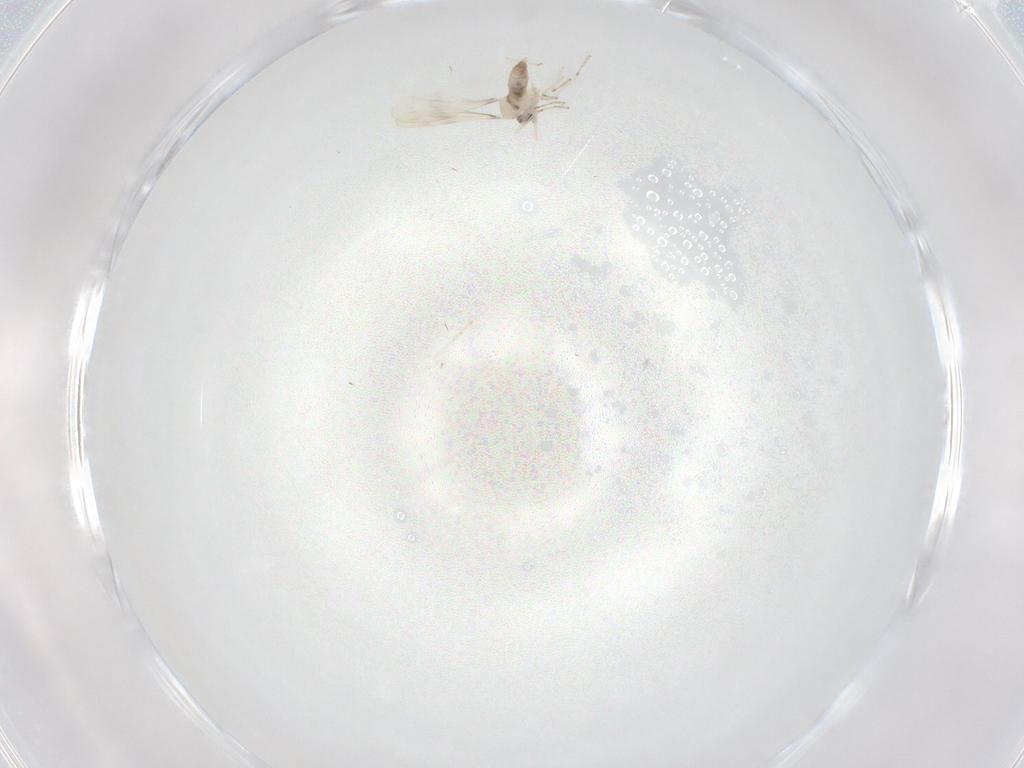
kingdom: Animalia
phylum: Arthropoda
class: Insecta
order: Diptera
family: Cecidomyiidae
